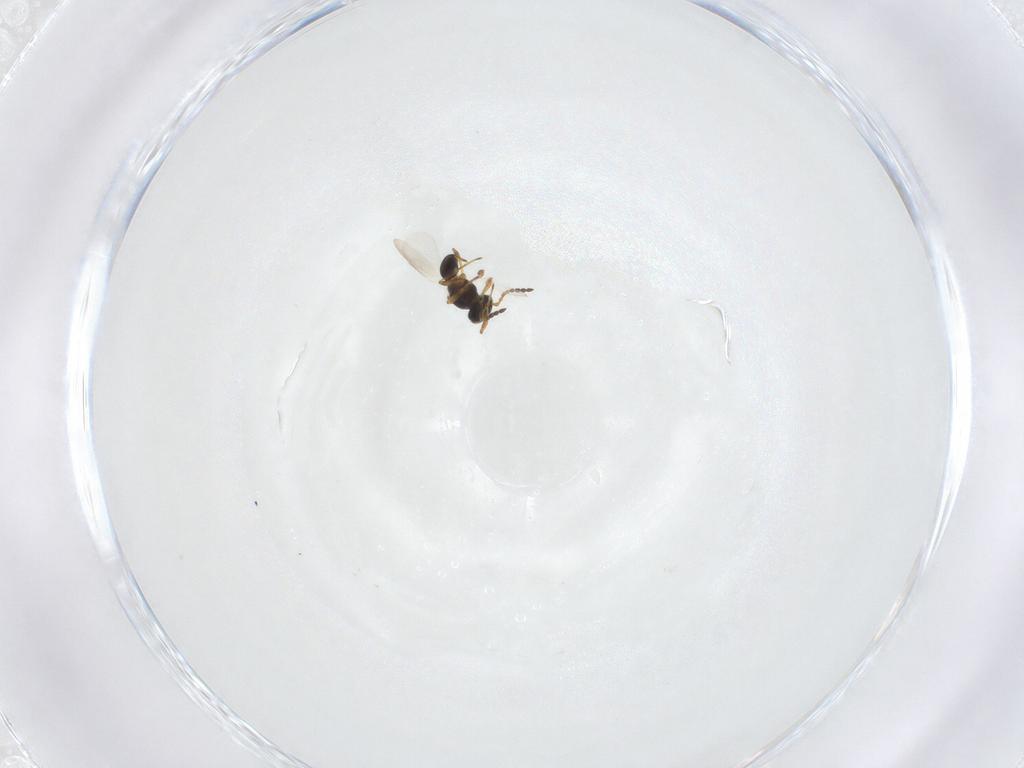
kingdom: Animalia
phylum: Arthropoda
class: Insecta
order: Hymenoptera
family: Platygastridae
